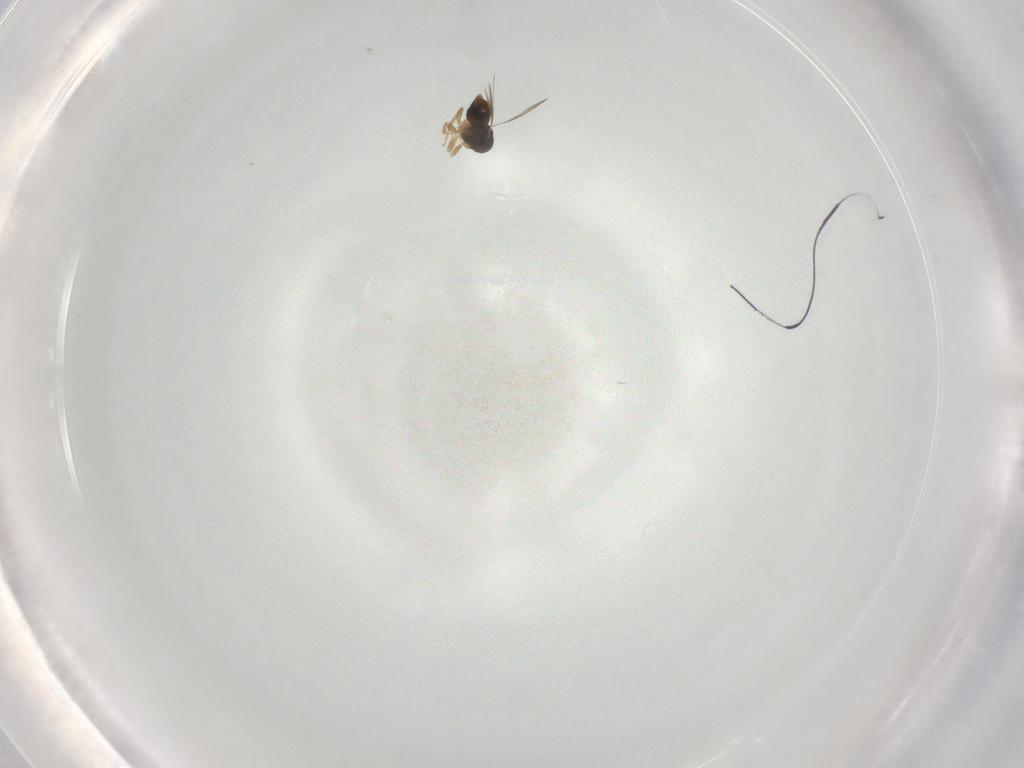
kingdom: Animalia
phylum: Arthropoda
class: Insecta
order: Hymenoptera
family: Ceraphronidae
